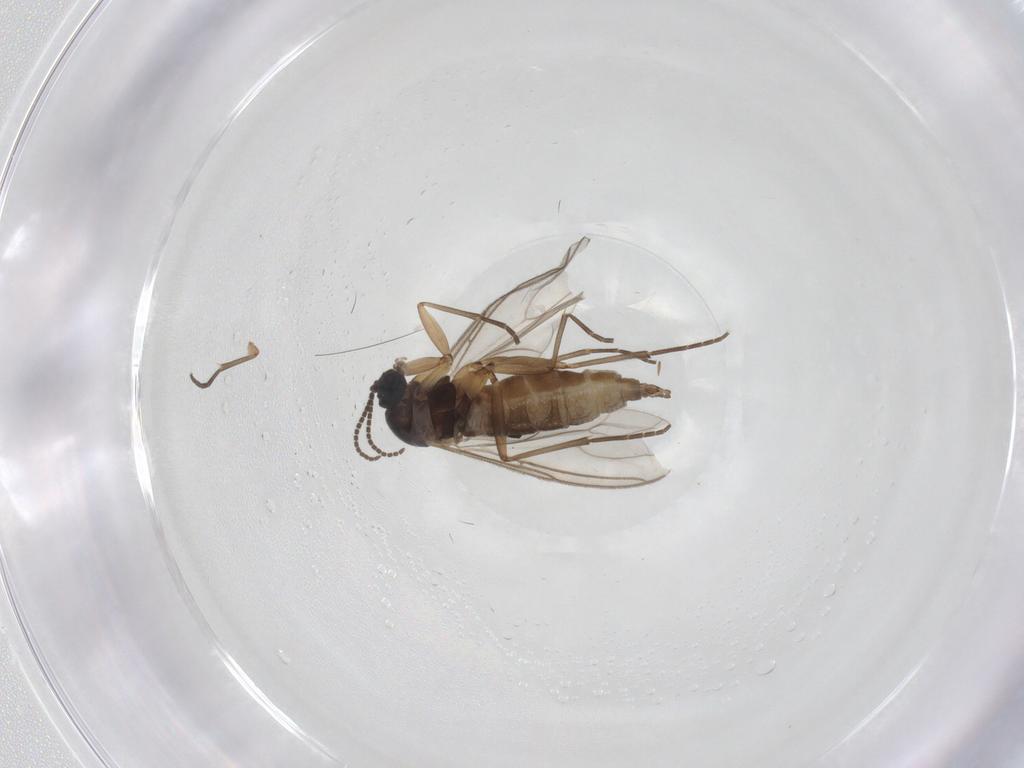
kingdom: Animalia
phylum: Arthropoda
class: Insecta
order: Diptera
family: Sciaridae
